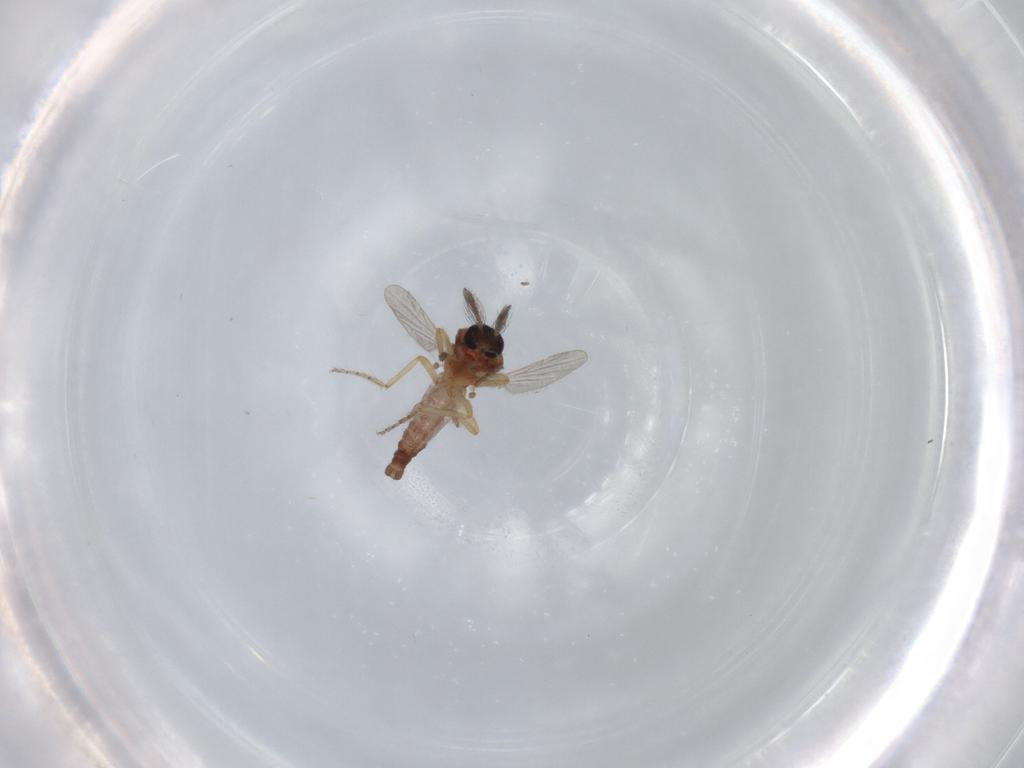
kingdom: Animalia
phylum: Arthropoda
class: Insecta
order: Diptera
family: Ceratopogonidae
